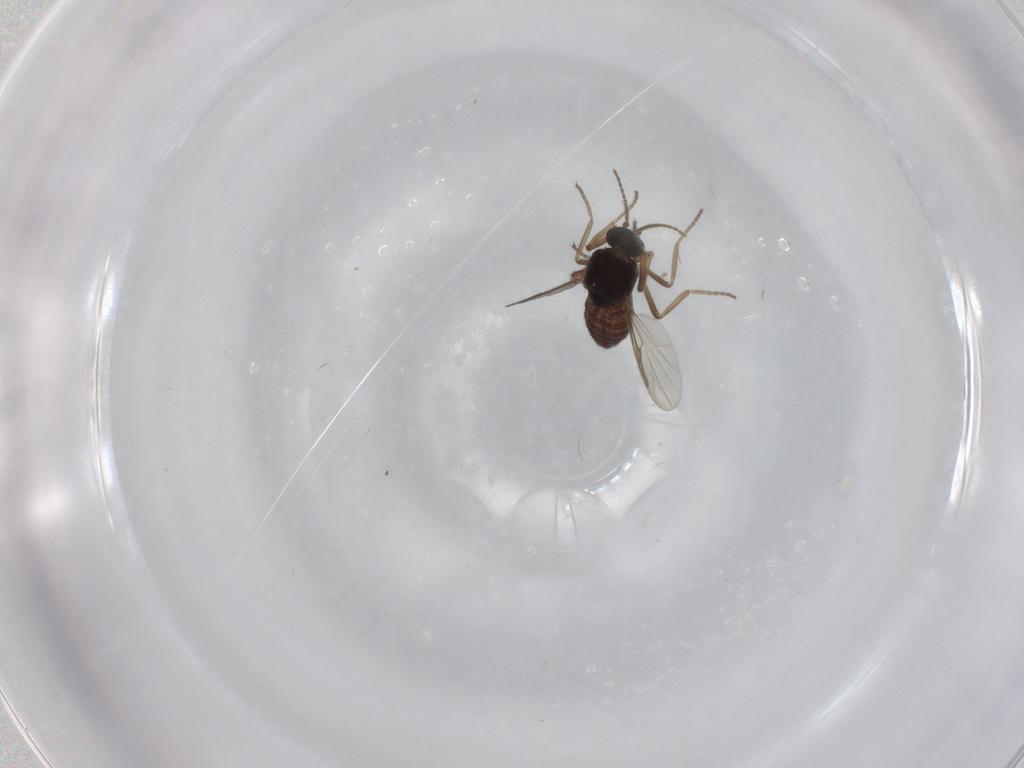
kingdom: Animalia
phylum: Arthropoda
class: Insecta
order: Diptera
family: Ceratopogonidae
